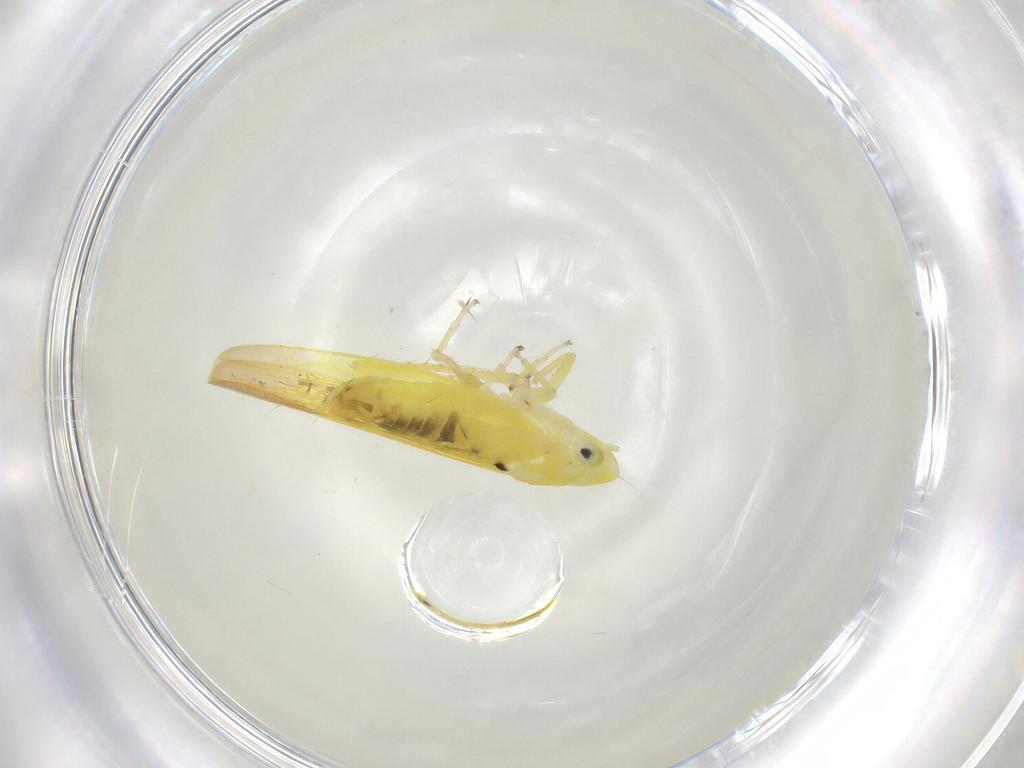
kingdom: Animalia
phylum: Arthropoda
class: Insecta
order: Hemiptera
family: Cicadellidae
